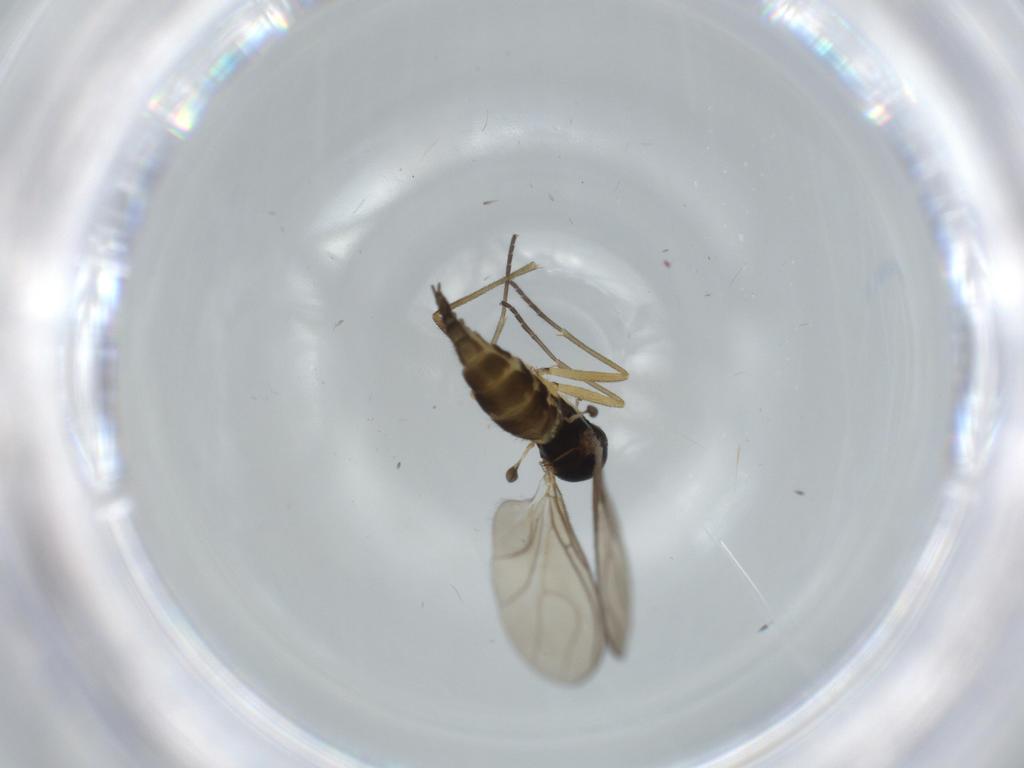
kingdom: Animalia
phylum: Arthropoda
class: Insecta
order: Diptera
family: Sciaridae
